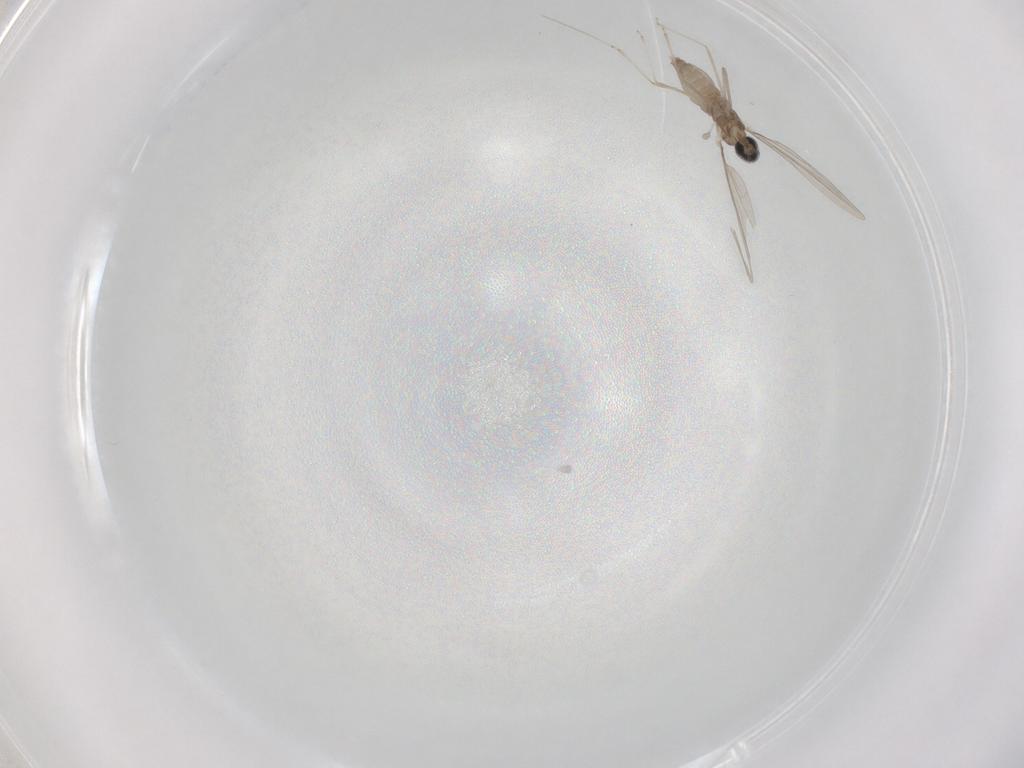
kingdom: Animalia
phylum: Arthropoda
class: Insecta
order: Diptera
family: Cecidomyiidae
